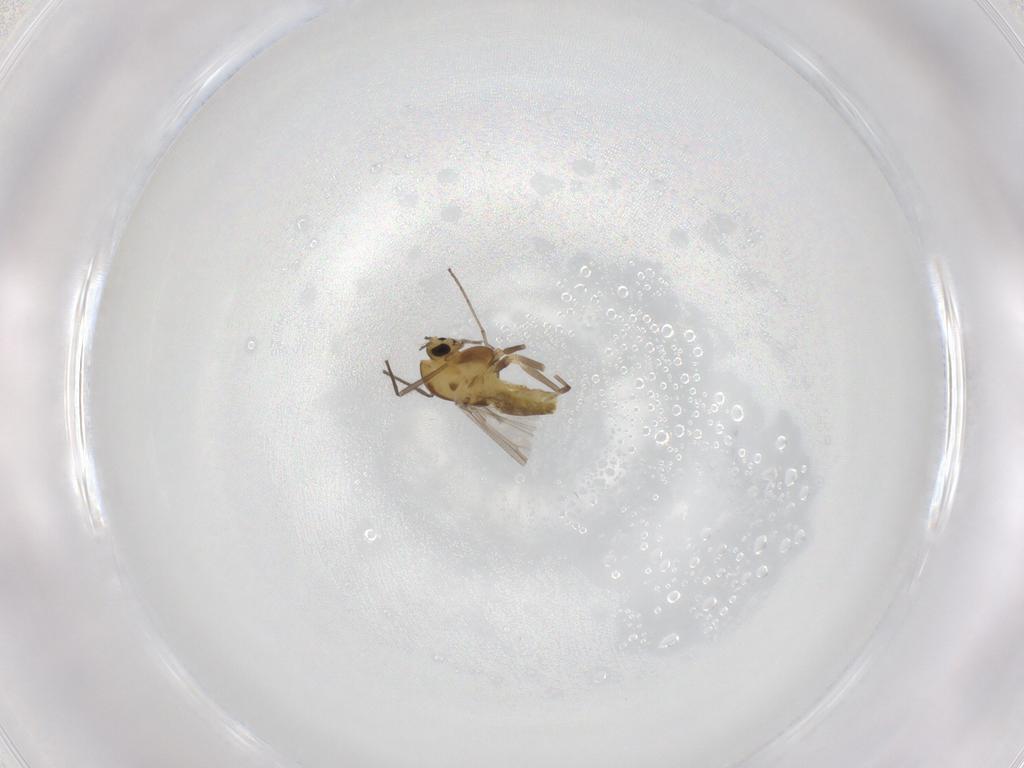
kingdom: Animalia
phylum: Arthropoda
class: Insecta
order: Diptera
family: Chironomidae
